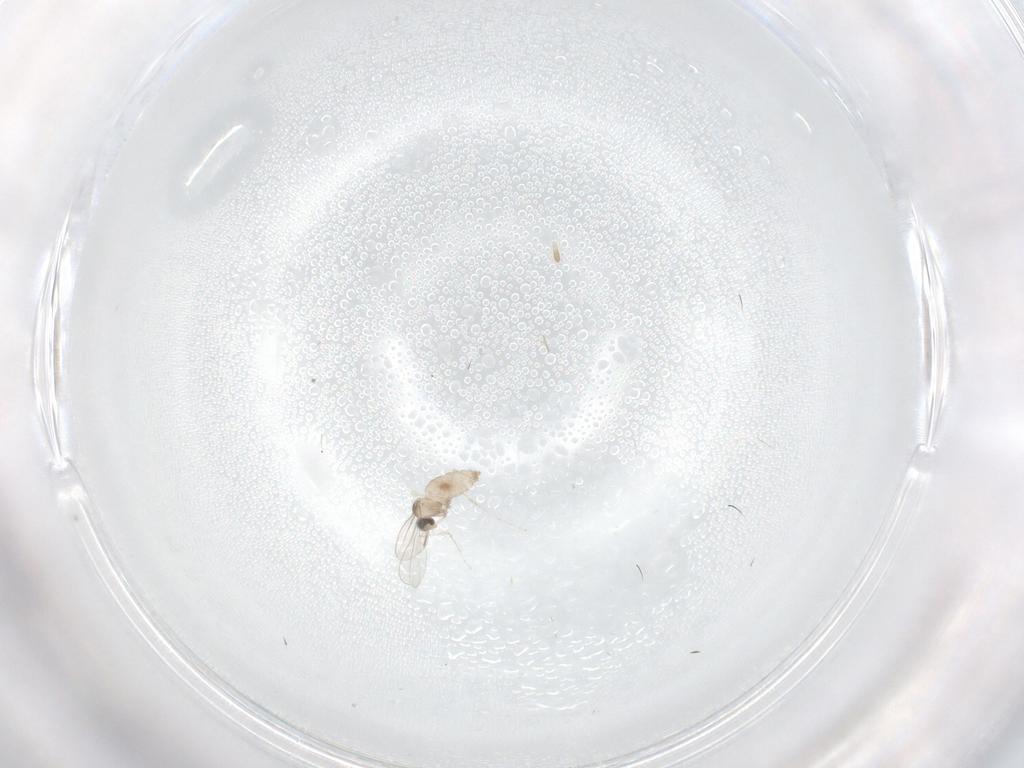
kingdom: Animalia
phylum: Arthropoda
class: Insecta
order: Diptera
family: Cecidomyiidae
